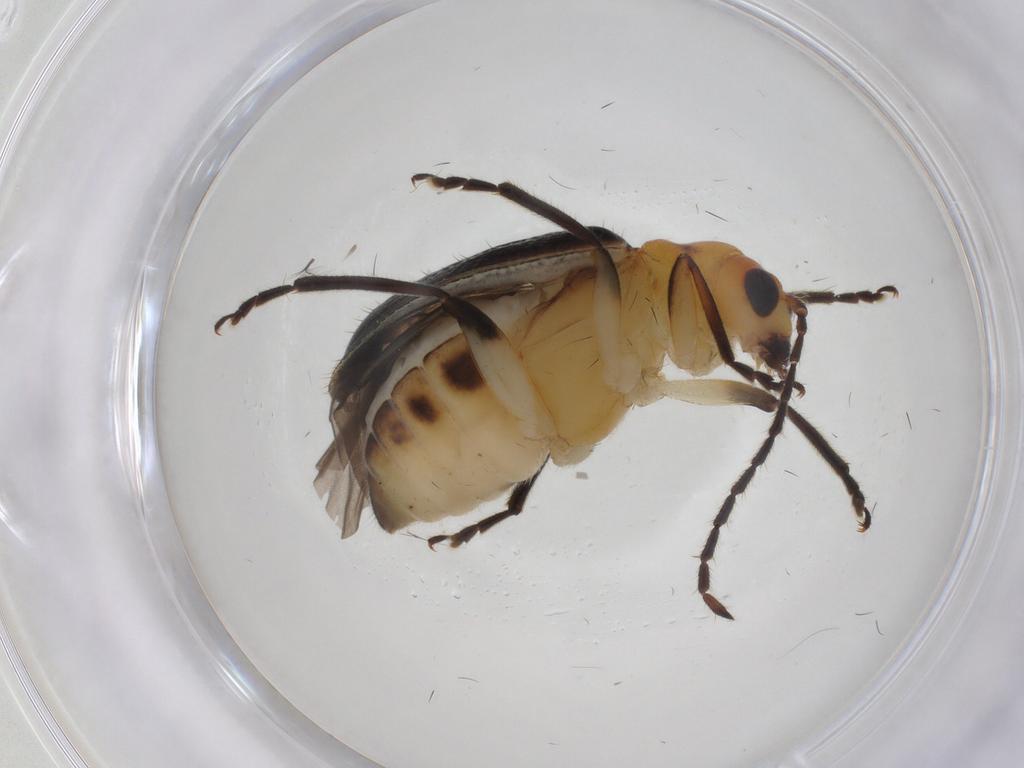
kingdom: Animalia
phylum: Arthropoda
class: Insecta
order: Coleoptera
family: Chrysomelidae
